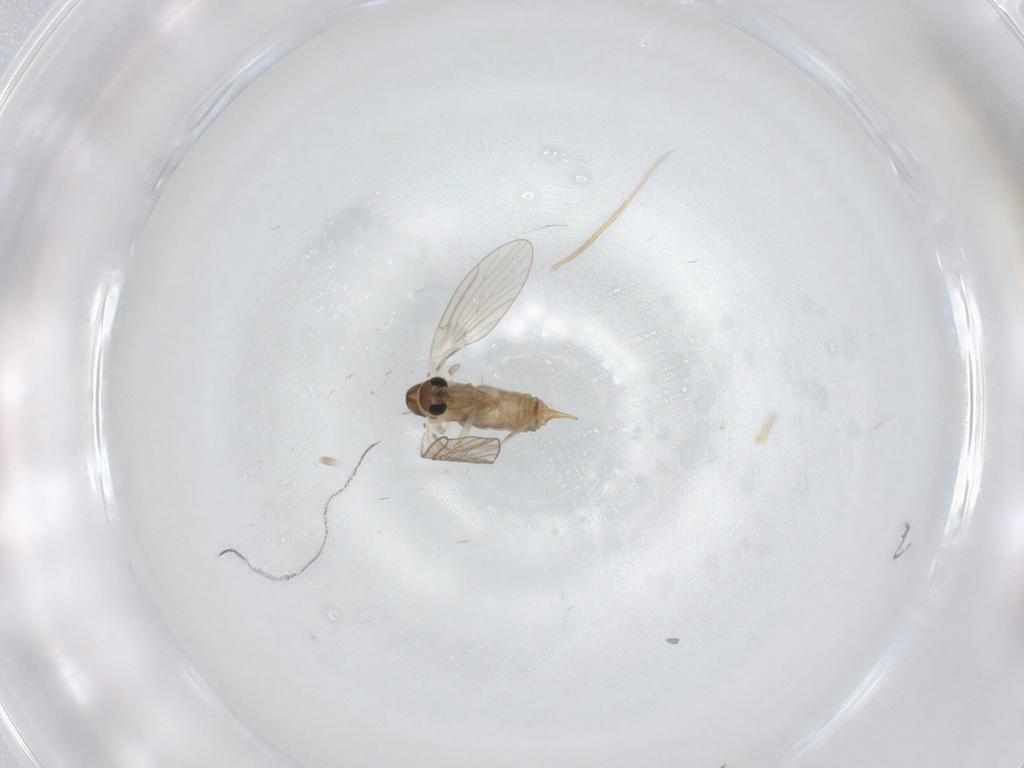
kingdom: Animalia
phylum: Arthropoda
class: Insecta
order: Diptera
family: Psychodidae
